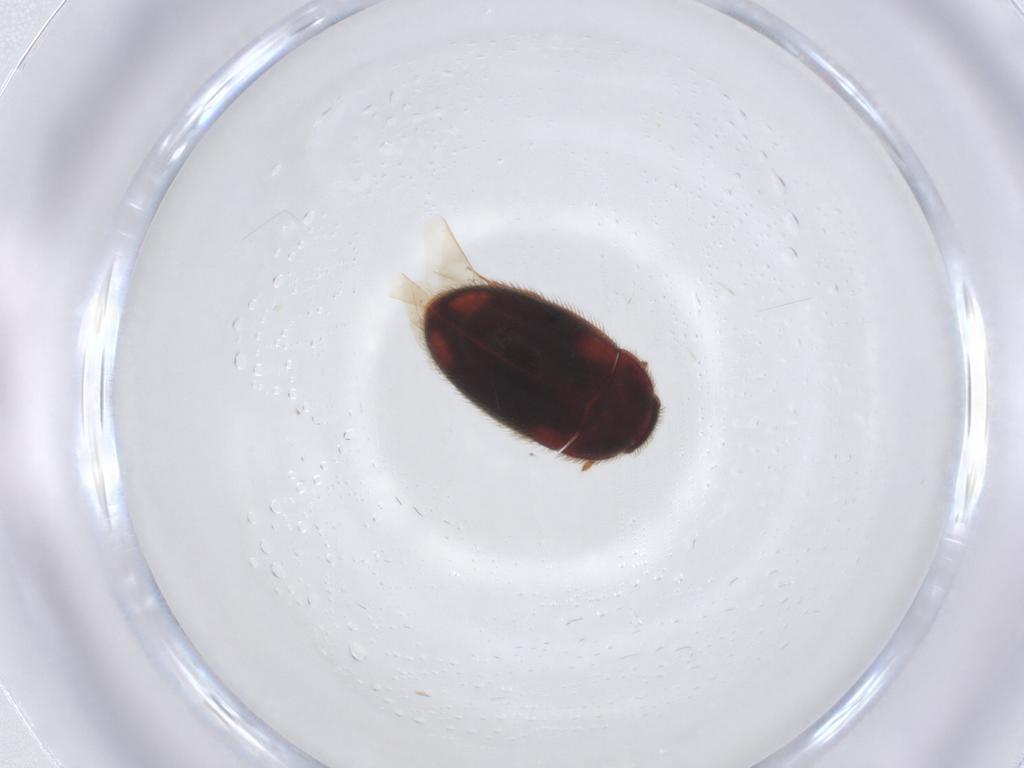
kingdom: Animalia
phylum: Arthropoda
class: Insecta
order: Coleoptera
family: Biphyllidae
